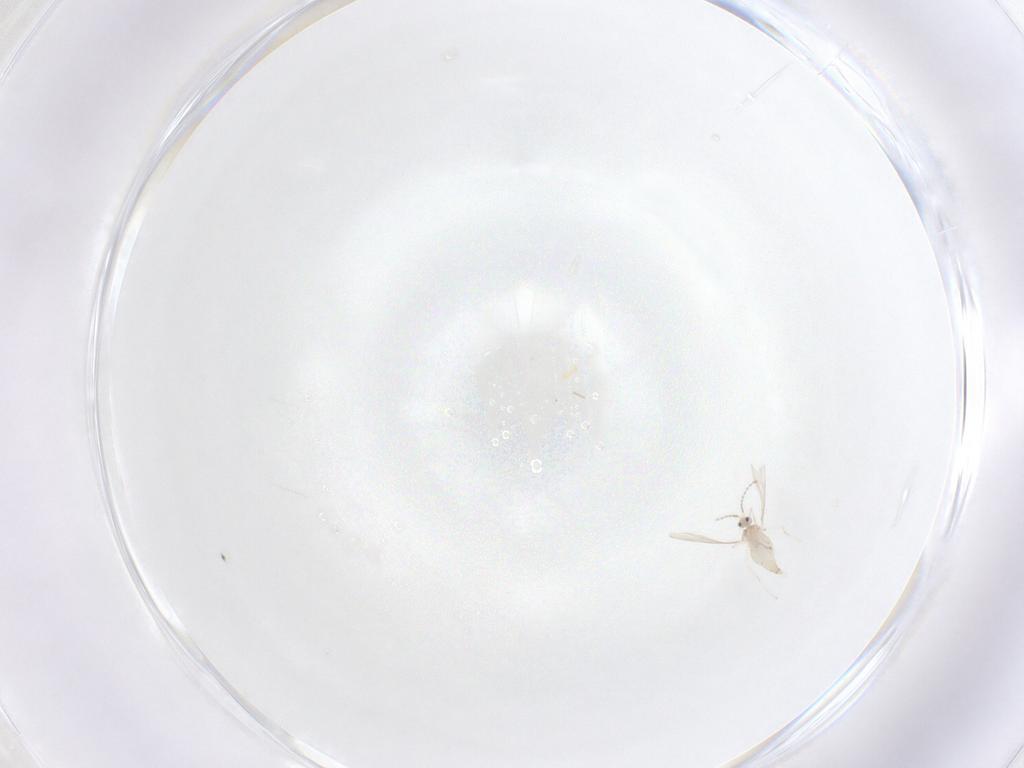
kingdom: Animalia
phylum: Arthropoda
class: Insecta
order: Diptera
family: Cecidomyiidae
